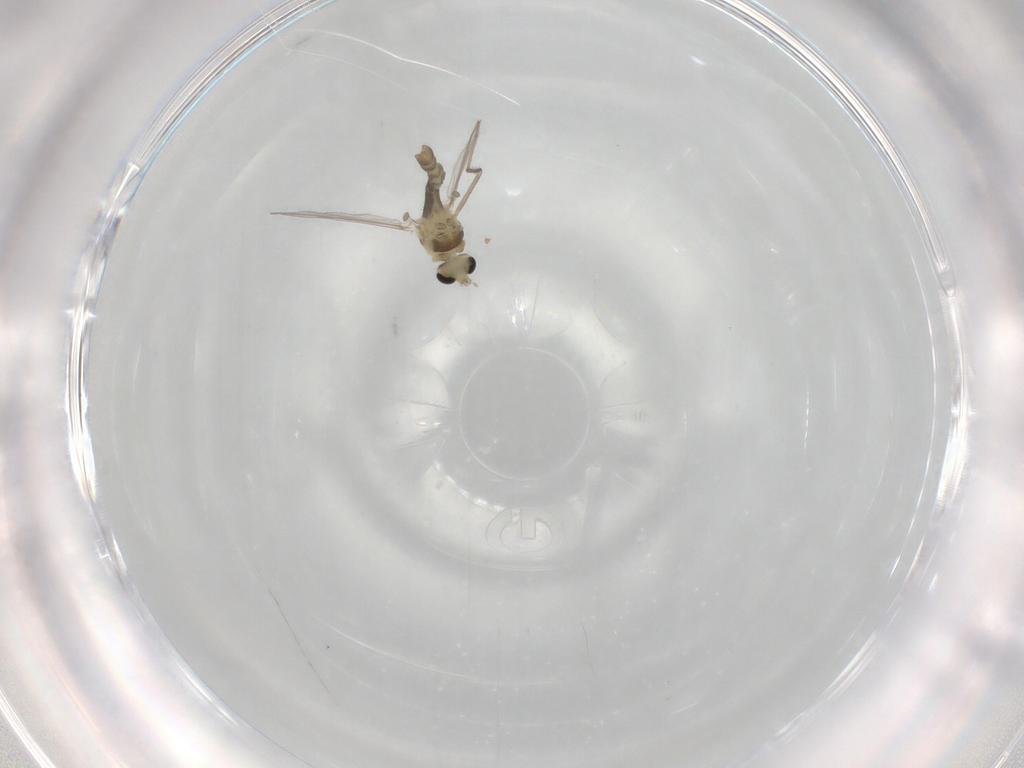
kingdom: Animalia
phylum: Arthropoda
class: Insecta
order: Diptera
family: Chironomidae
